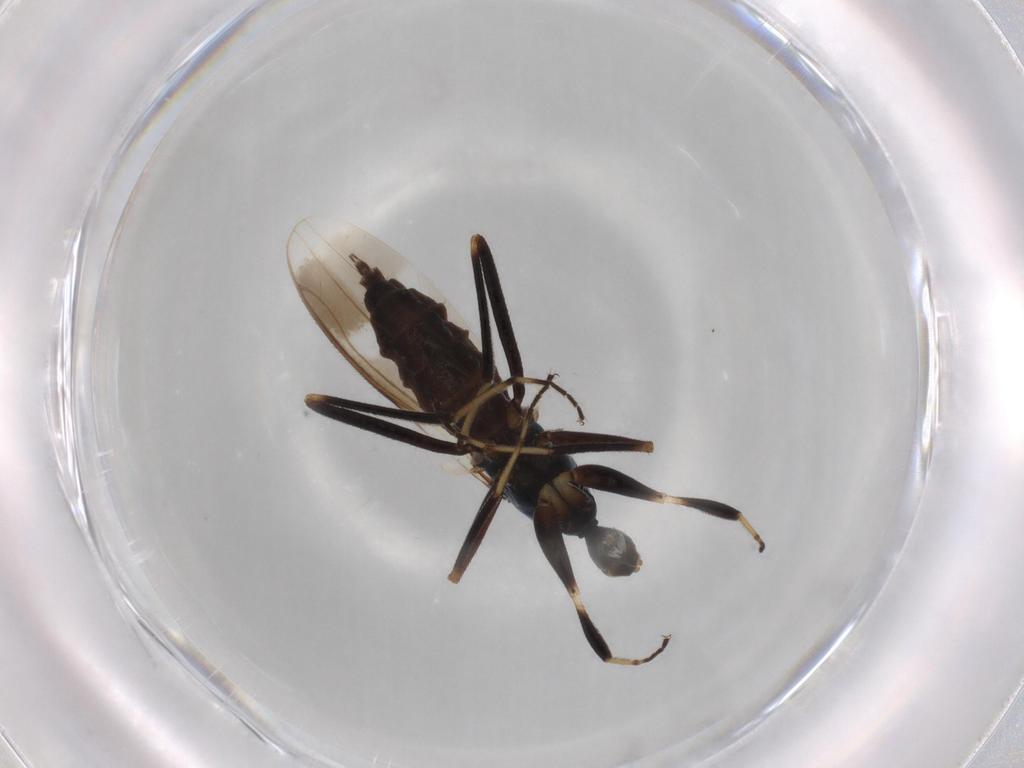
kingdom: Animalia
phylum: Arthropoda
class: Insecta
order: Diptera
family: Hybotidae
